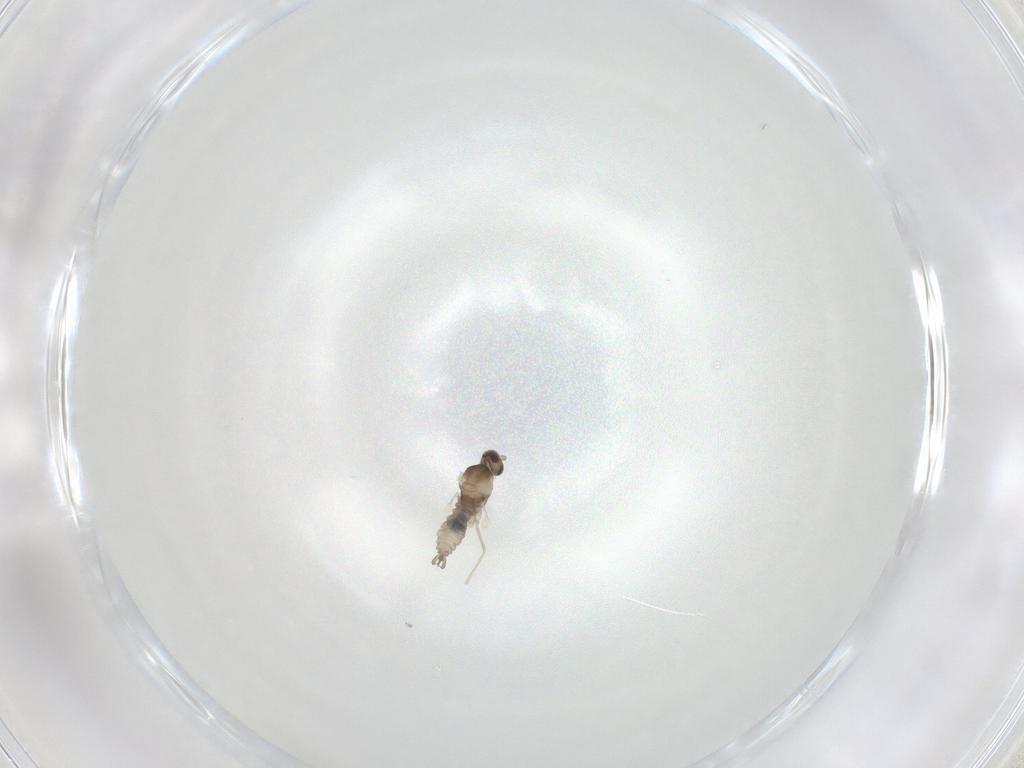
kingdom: Animalia
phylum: Arthropoda
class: Insecta
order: Diptera
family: Cecidomyiidae
